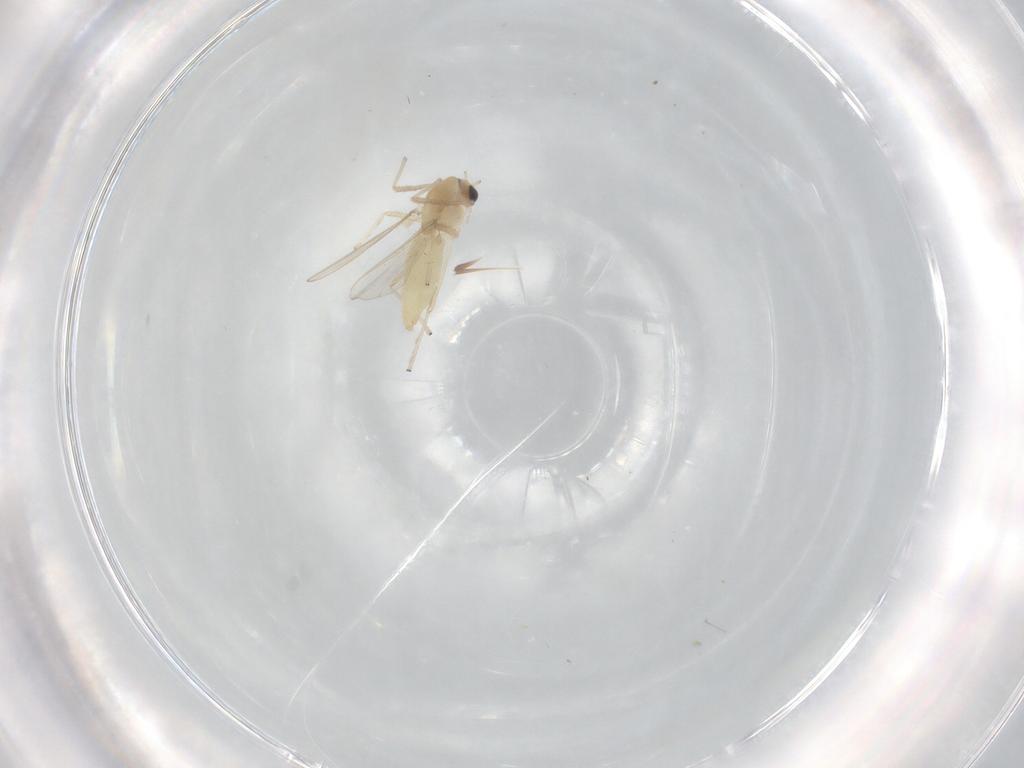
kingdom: Animalia
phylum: Arthropoda
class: Insecta
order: Diptera
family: Chironomidae
